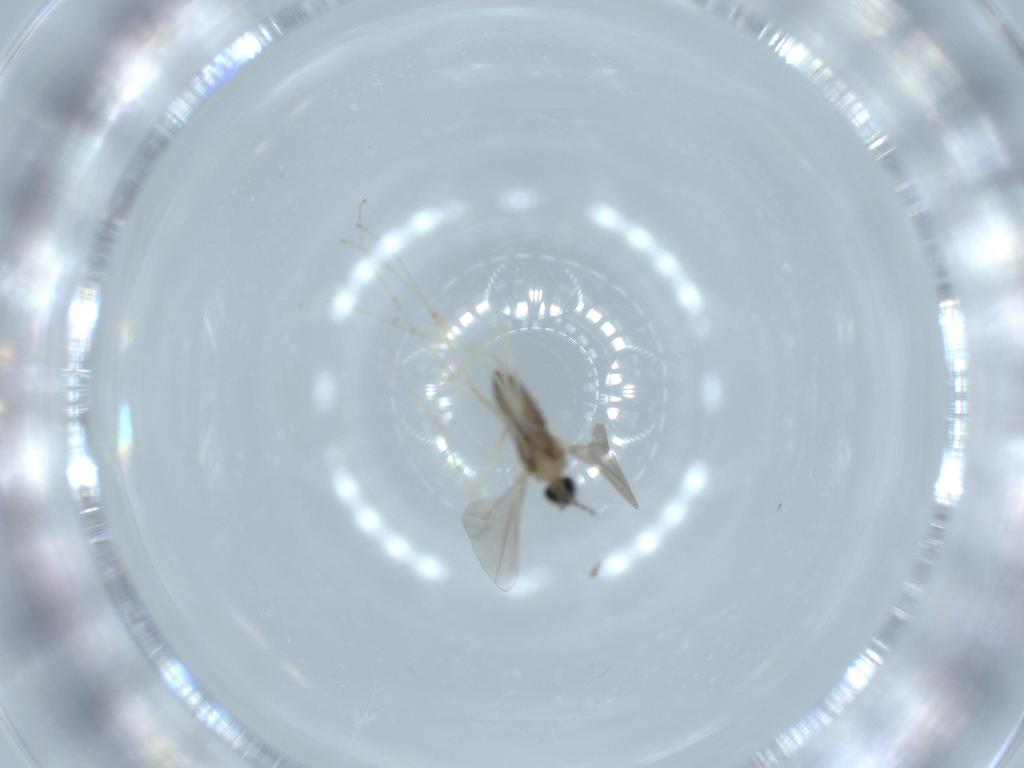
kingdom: Animalia
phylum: Arthropoda
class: Insecta
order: Diptera
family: Cecidomyiidae
